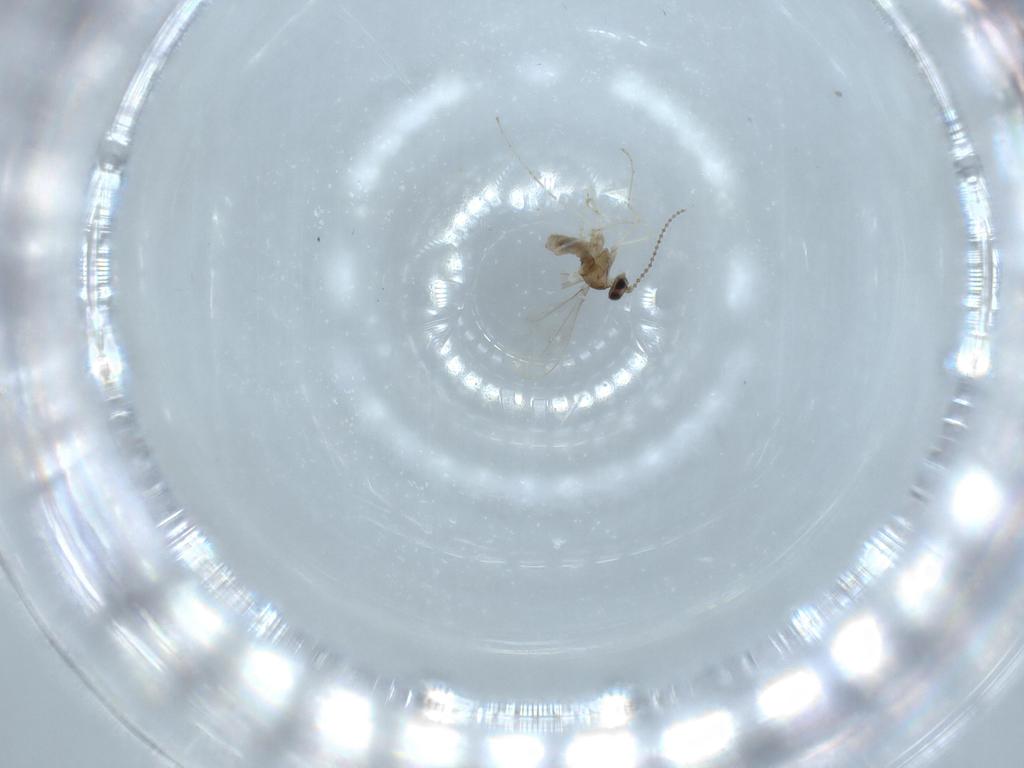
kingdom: Animalia
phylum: Arthropoda
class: Insecta
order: Diptera
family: Cecidomyiidae
